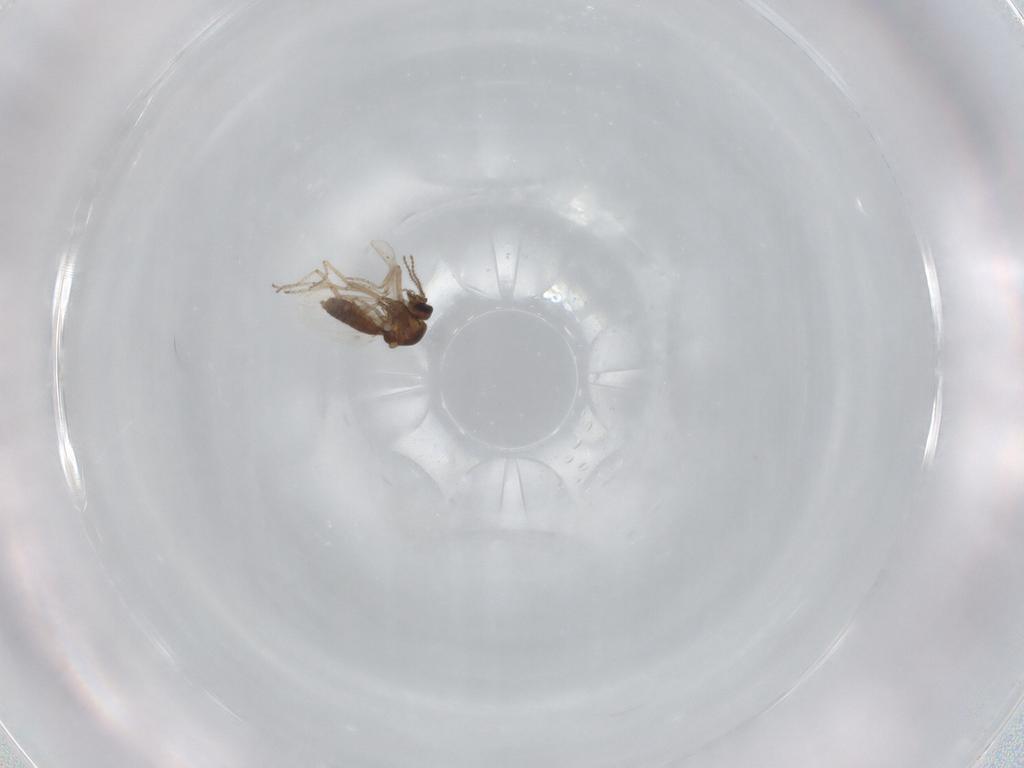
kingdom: Animalia
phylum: Arthropoda
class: Insecta
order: Diptera
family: Ceratopogonidae
